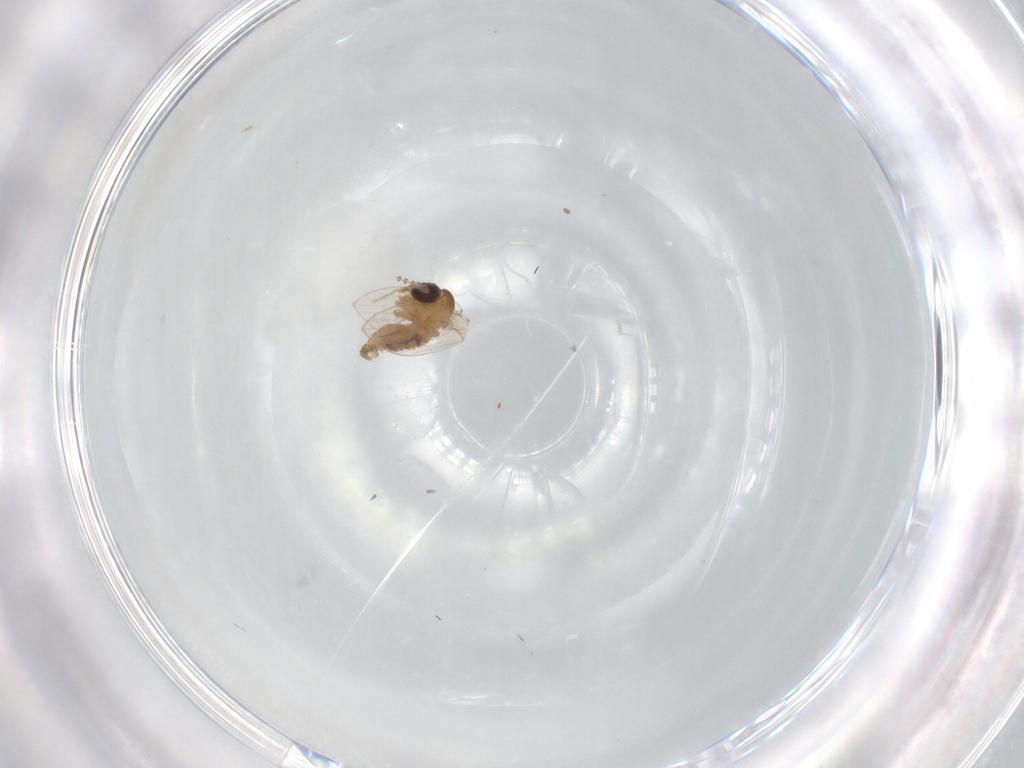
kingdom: Animalia
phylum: Arthropoda
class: Insecta
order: Diptera
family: Psychodidae
